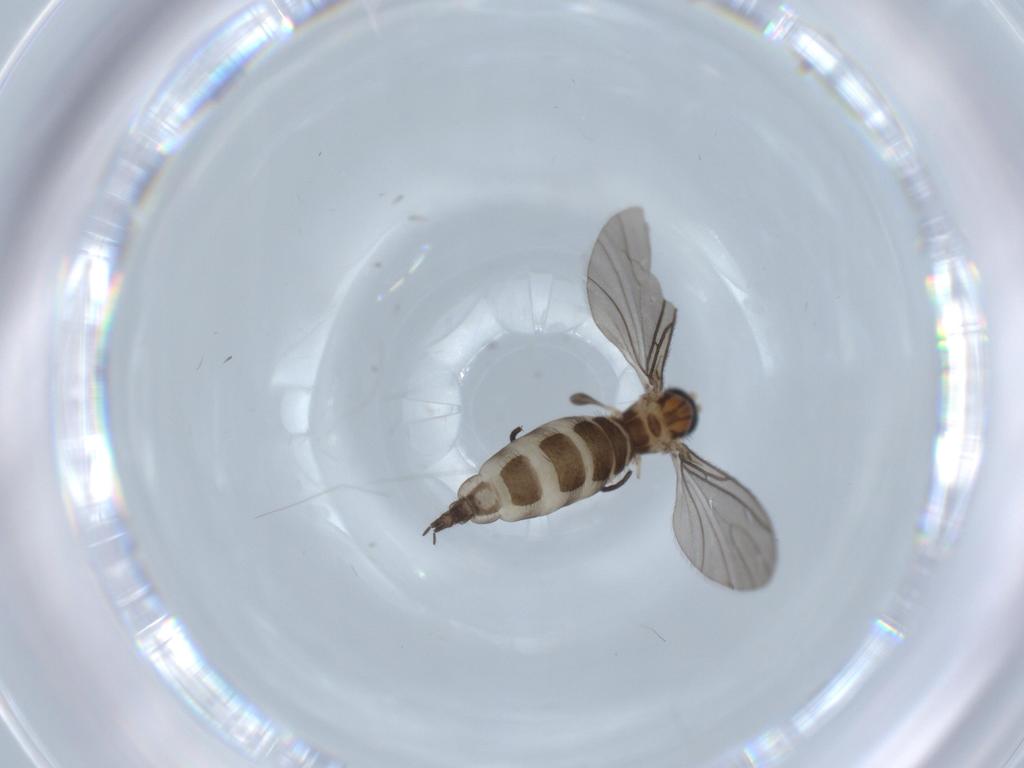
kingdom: Animalia
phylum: Arthropoda
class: Insecta
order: Diptera
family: Sciaridae
